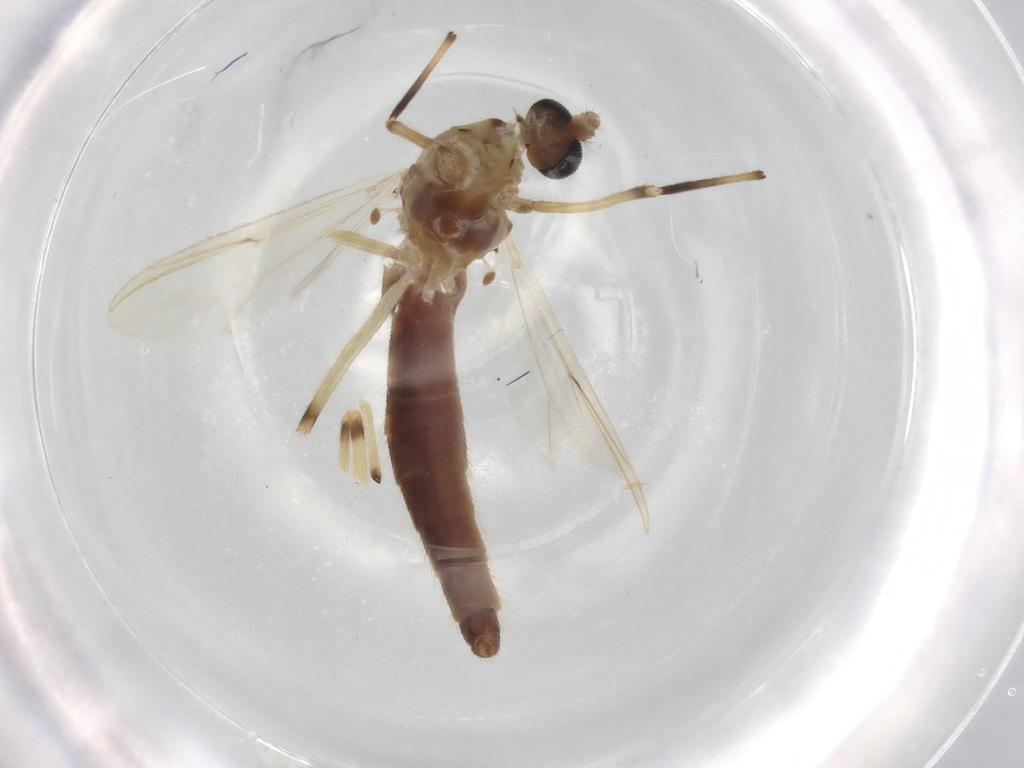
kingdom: Animalia
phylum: Arthropoda
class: Insecta
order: Diptera
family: Chironomidae
